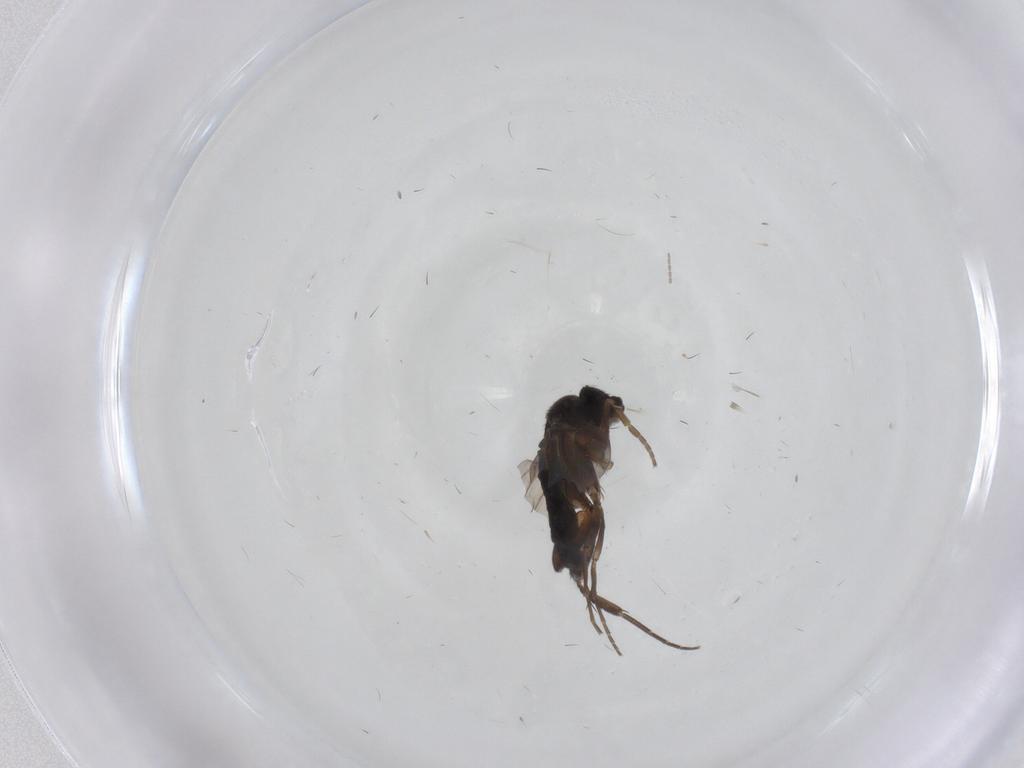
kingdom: Animalia
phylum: Arthropoda
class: Insecta
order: Diptera
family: Phoridae
